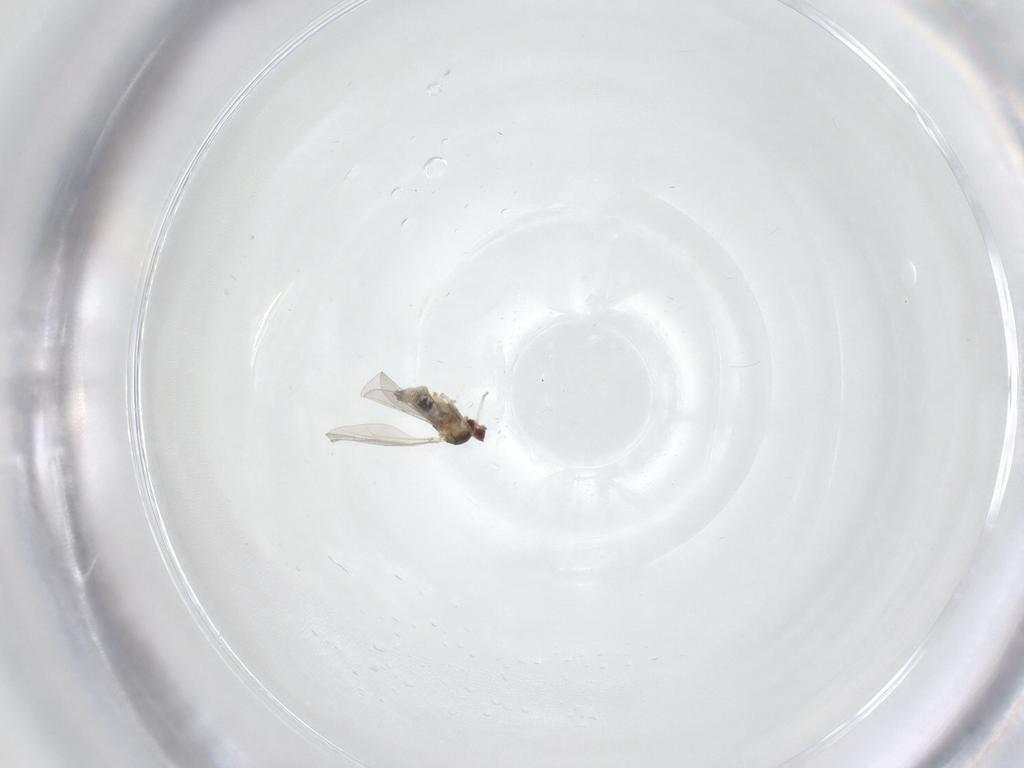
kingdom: Animalia
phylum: Arthropoda
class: Insecta
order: Diptera
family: Cecidomyiidae
